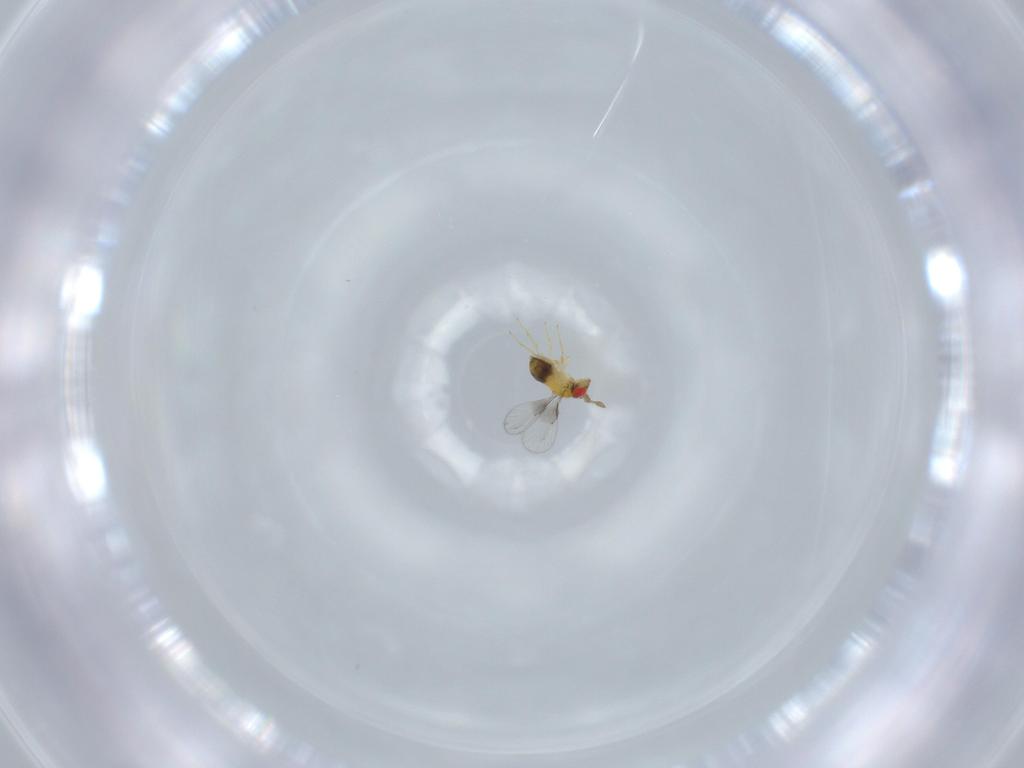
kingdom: Animalia
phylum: Arthropoda
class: Insecta
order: Hymenoptera
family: Trichogrammatidae
